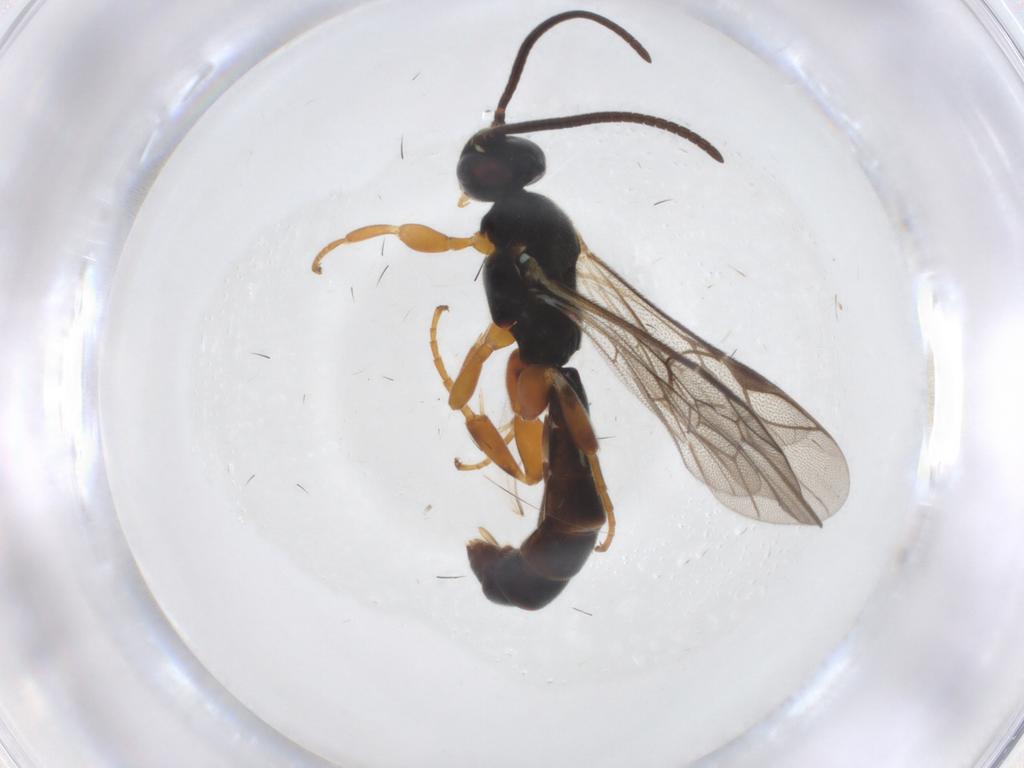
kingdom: Animalia
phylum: Arthropoda
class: Insecta
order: Hymenoptera
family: Ichneumonidae
